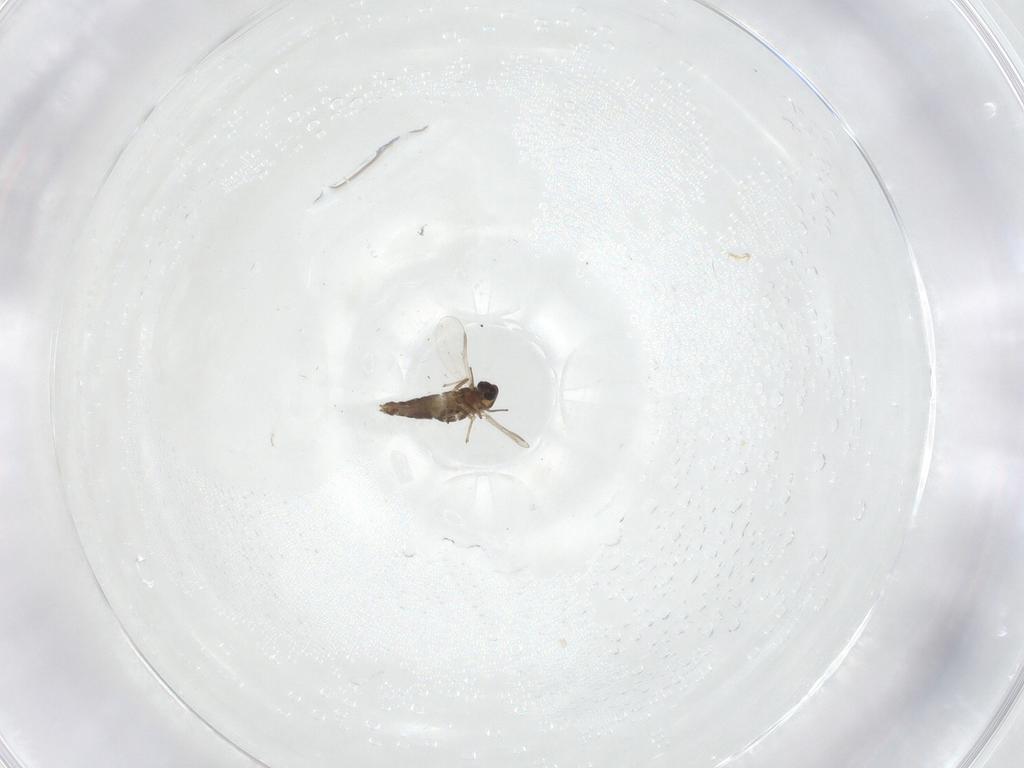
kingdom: Animalia
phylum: Arthropoda
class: Insecta
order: Diptera
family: Chironomidae
